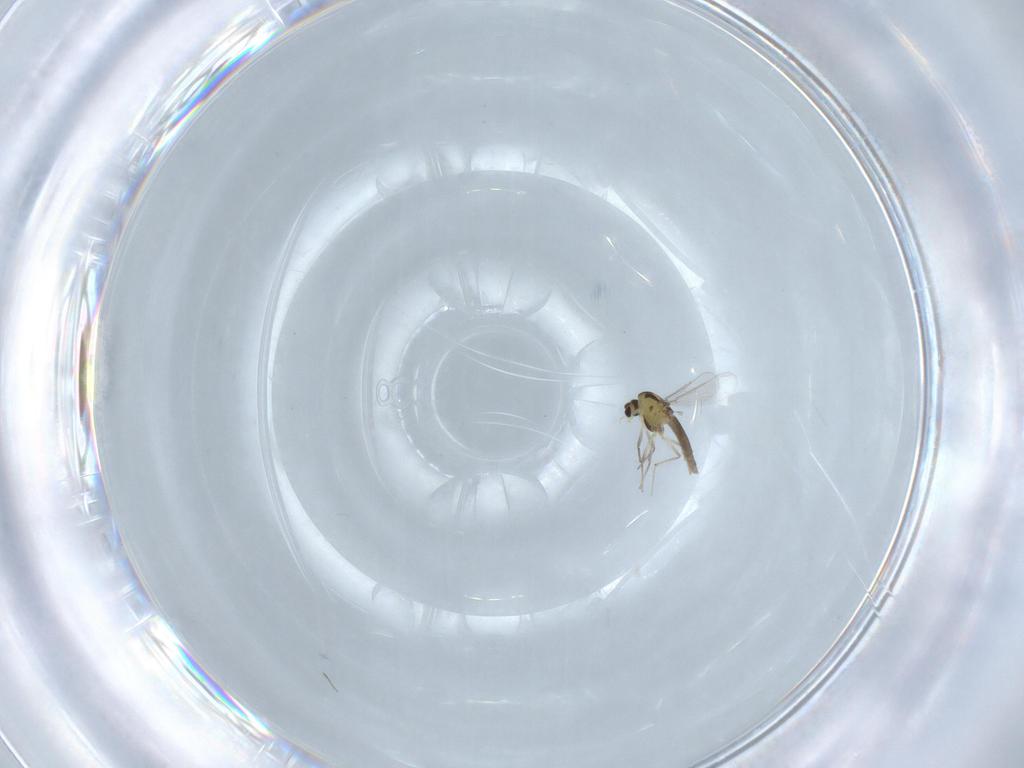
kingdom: Animalia
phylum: Arthropoda
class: Insecta
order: Diptera
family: Chironomidae
